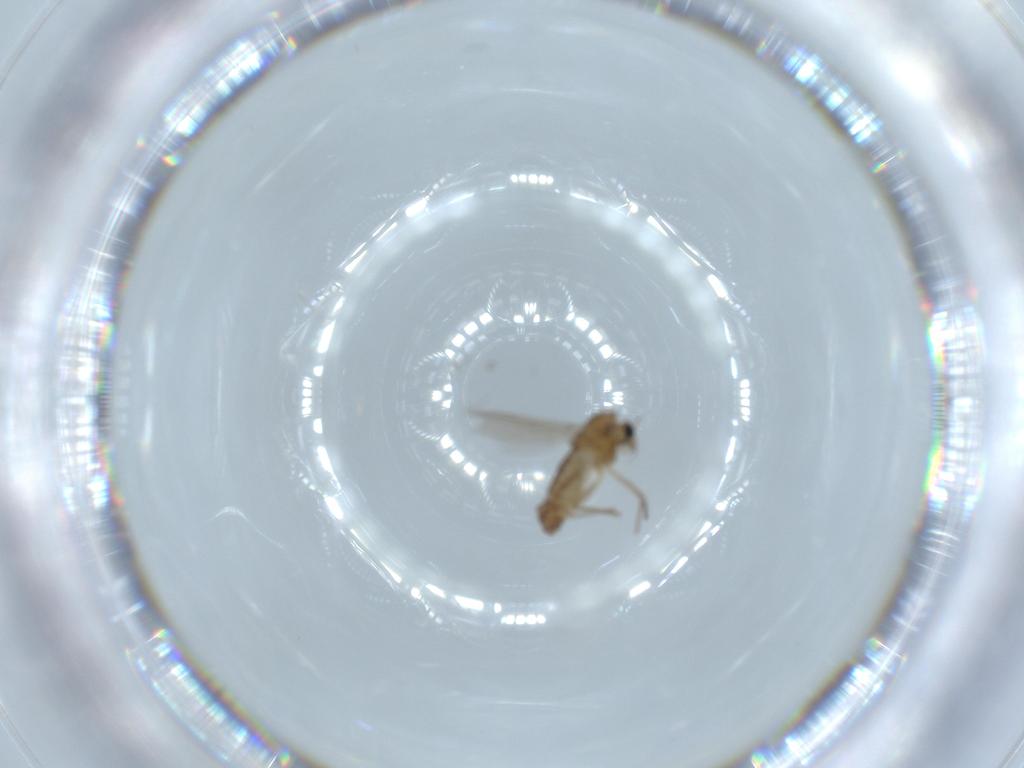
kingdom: Animalia
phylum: Arthropoda
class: Insecta
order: Diptera
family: Chironomidae
